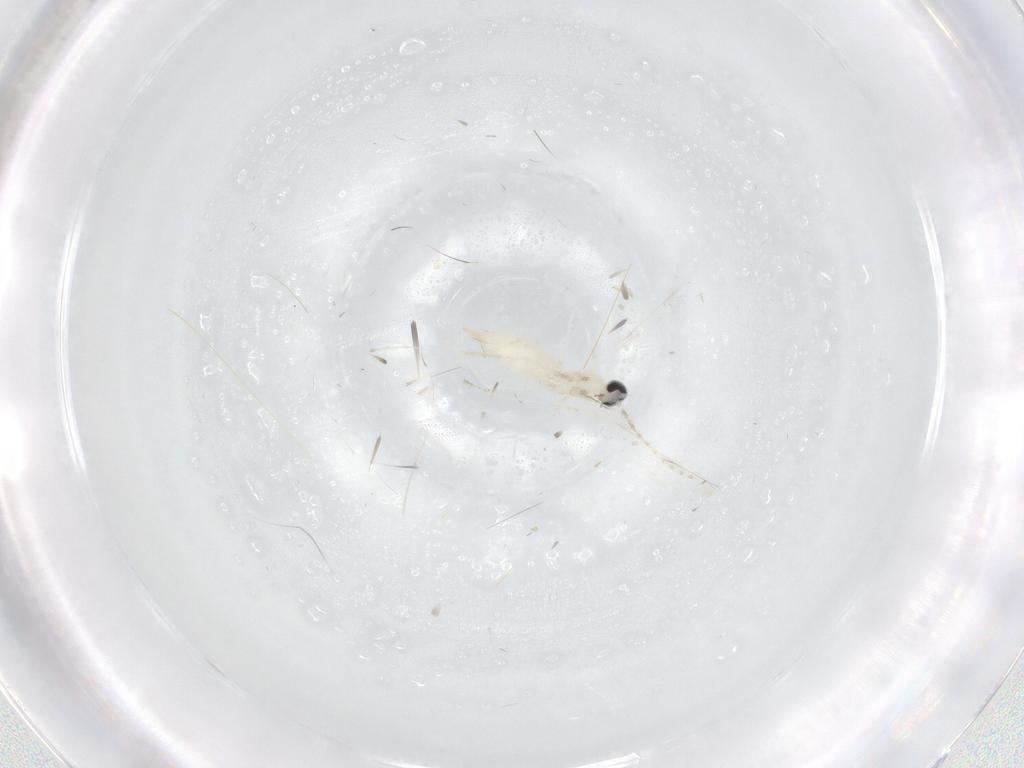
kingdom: Animalia
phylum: Arthropoda
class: Insecta
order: Diptera
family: Cecidomyiidae
